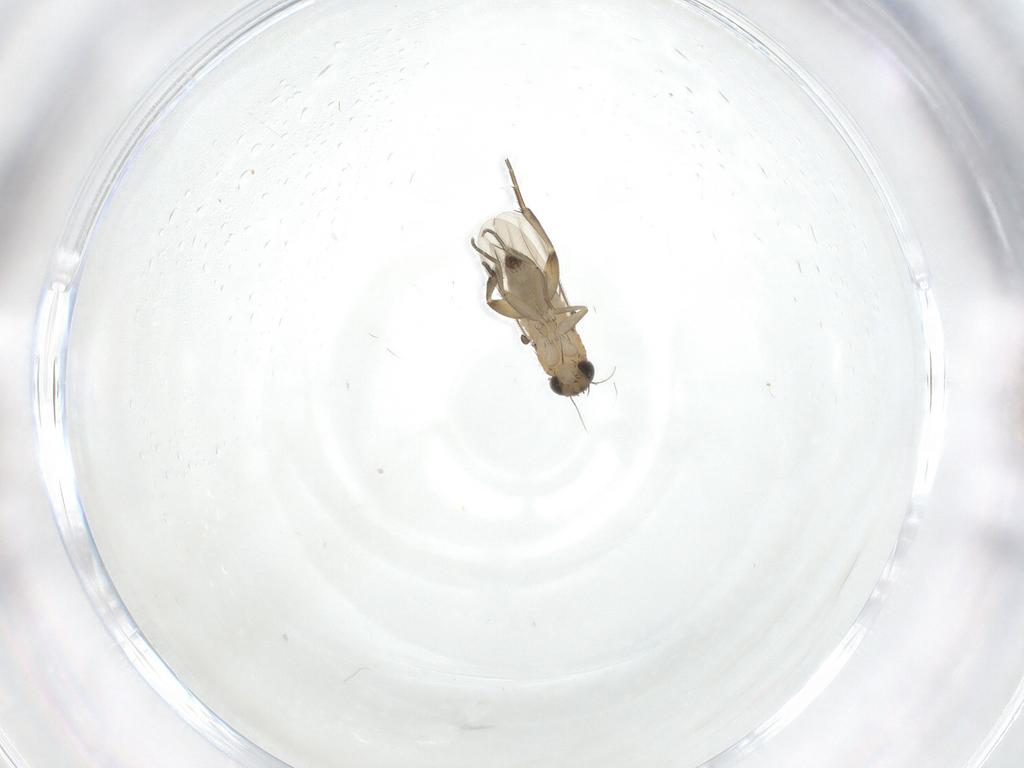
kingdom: Animalia
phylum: Arthropoda
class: Insecta
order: Diptera
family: Phoridae
